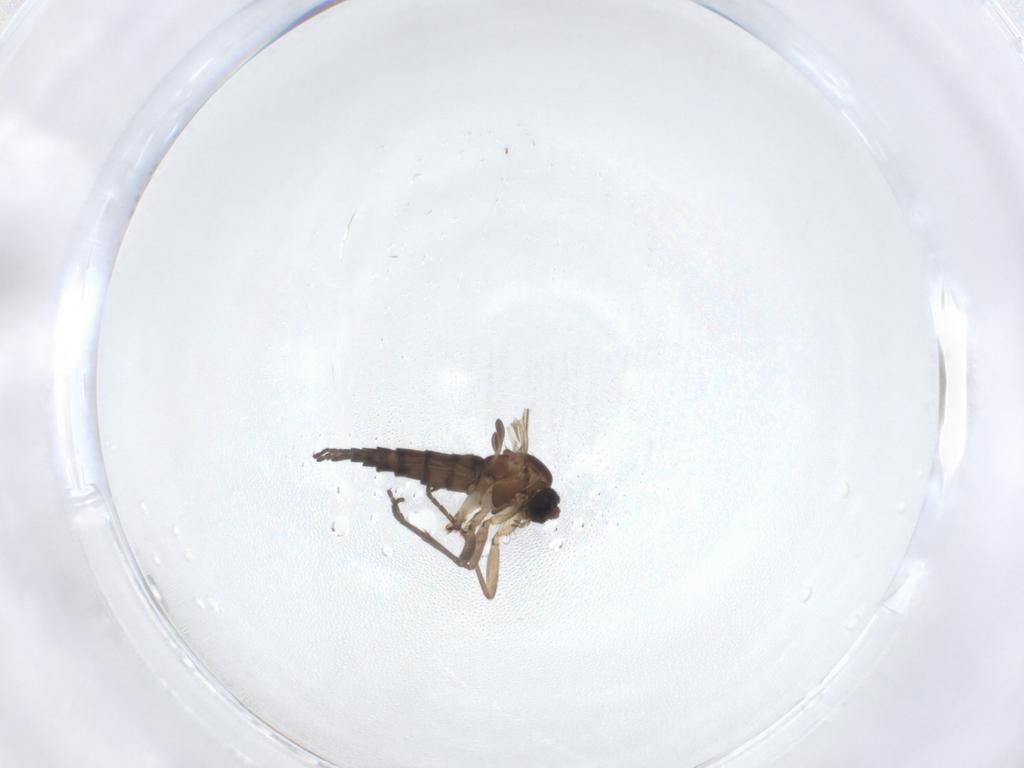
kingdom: Animalia
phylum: Arthropoda
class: Insecta
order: Diptera
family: Sciaridae
